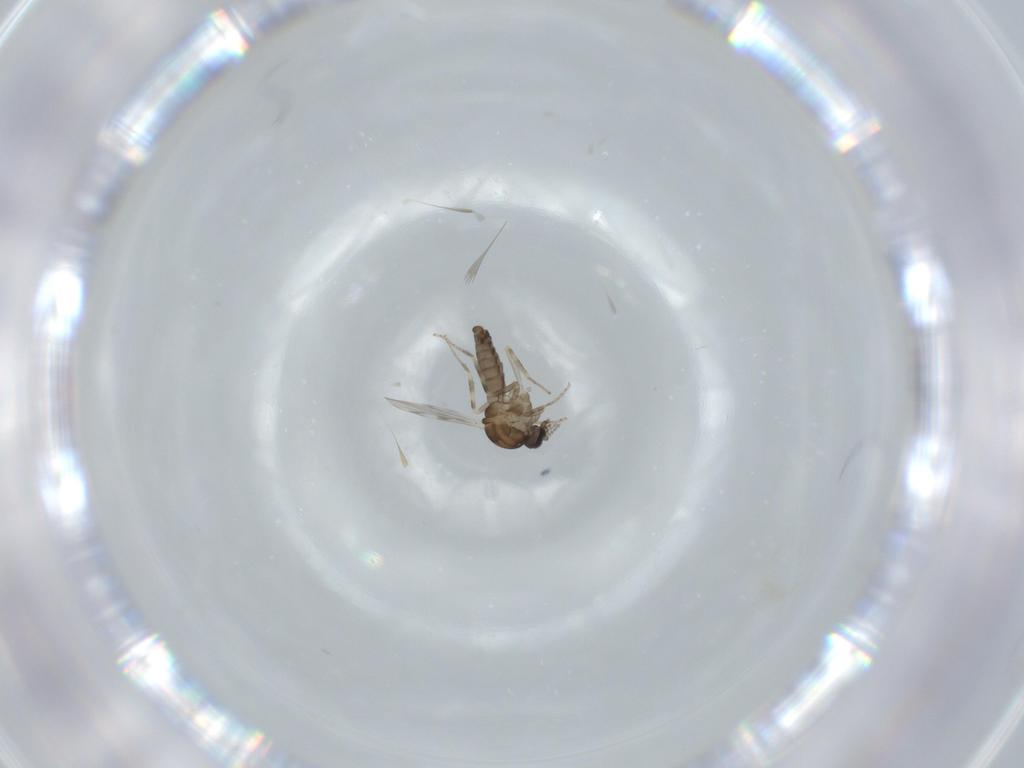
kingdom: Animalia
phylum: Arthropoda
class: Insecta
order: Diptera
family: Ceratopogonidae
